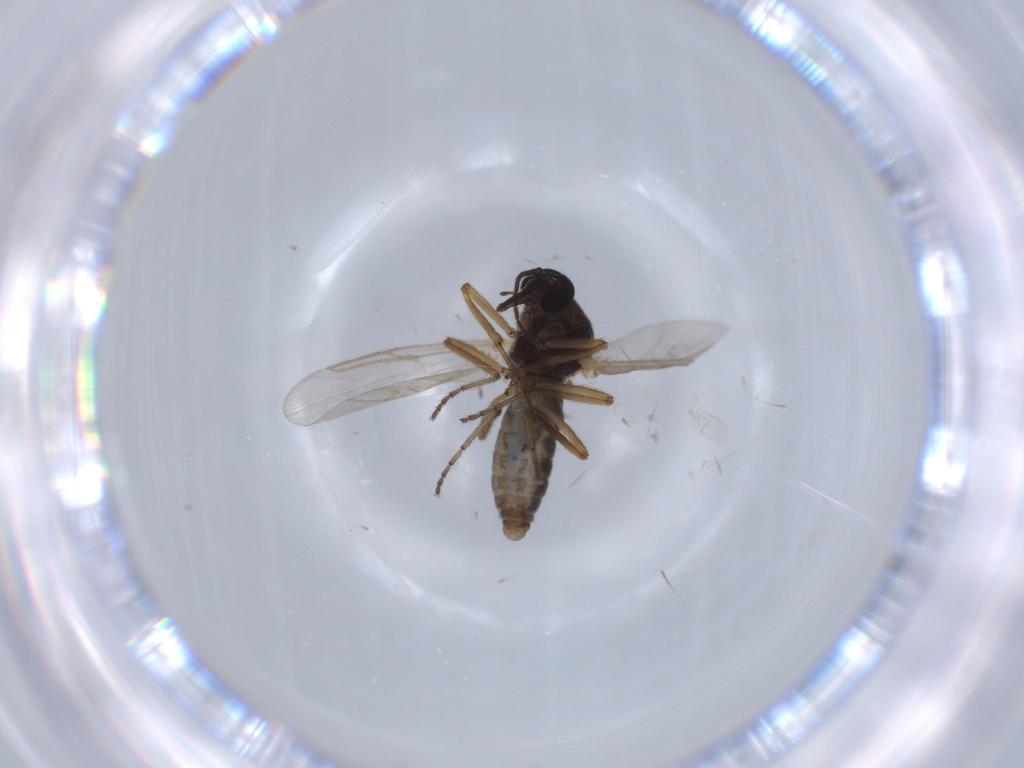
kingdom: Animalia
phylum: Arthropoda
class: Insecta
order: Diptera
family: Ceratopogonidae
